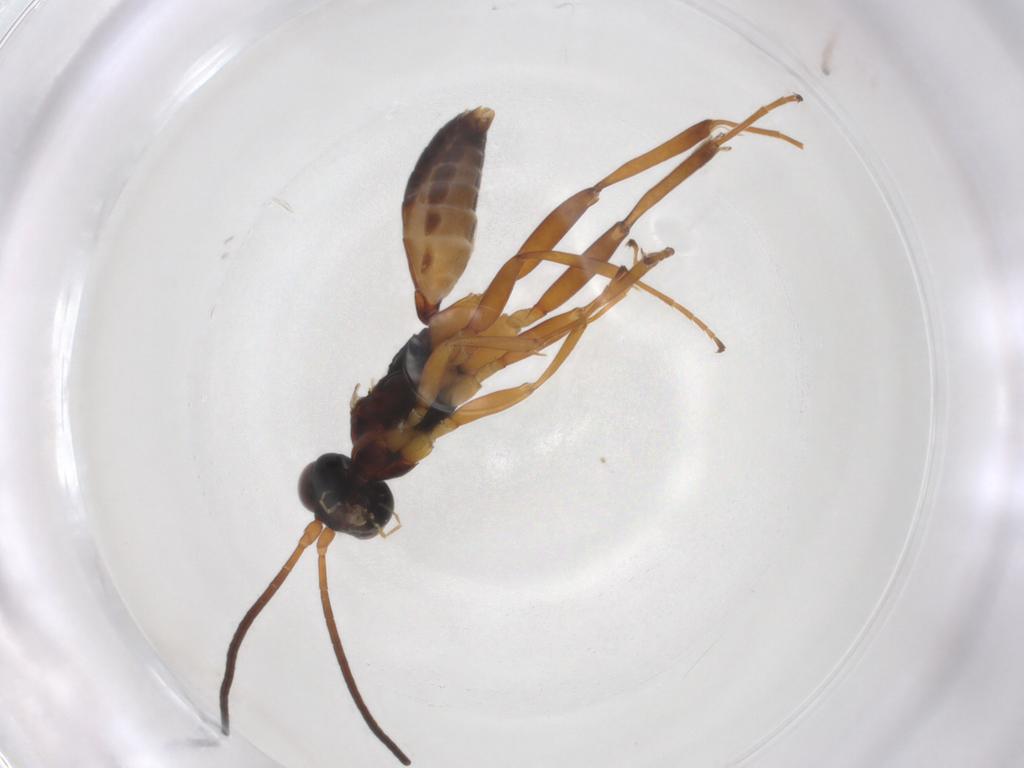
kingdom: Animalia
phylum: Arthropoda
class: Insecta
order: Hymenoptera
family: Ichneumonidae
